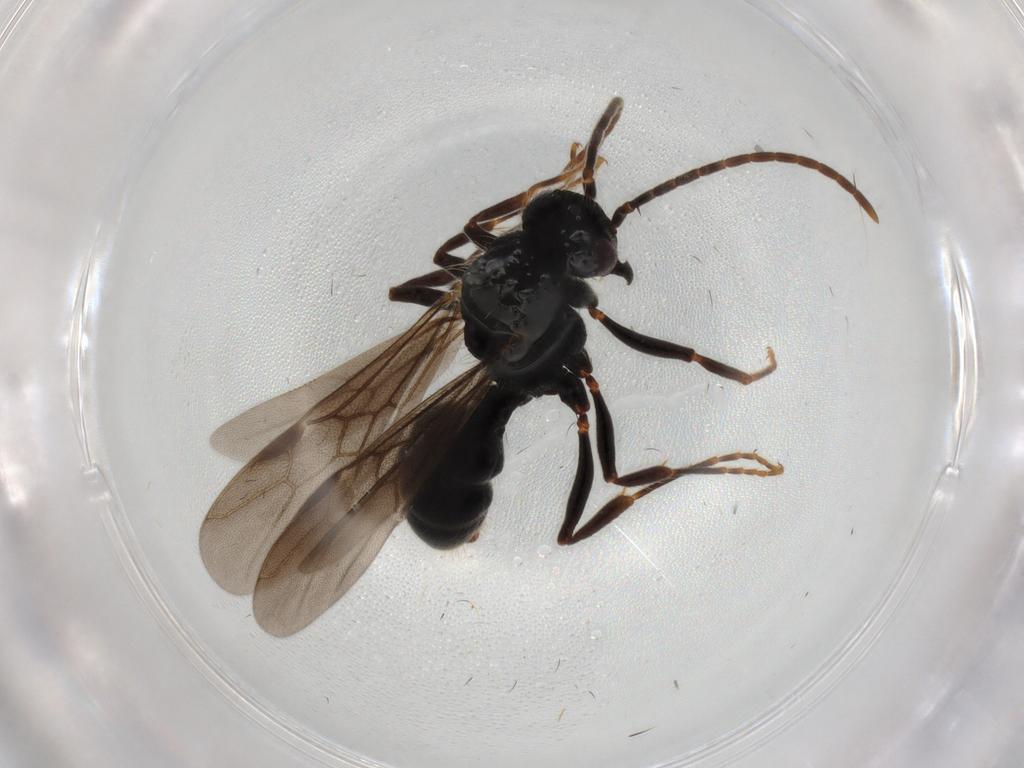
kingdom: Animalia
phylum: Arthropoda
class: Insecta
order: Hymenoptera
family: Formicidae
